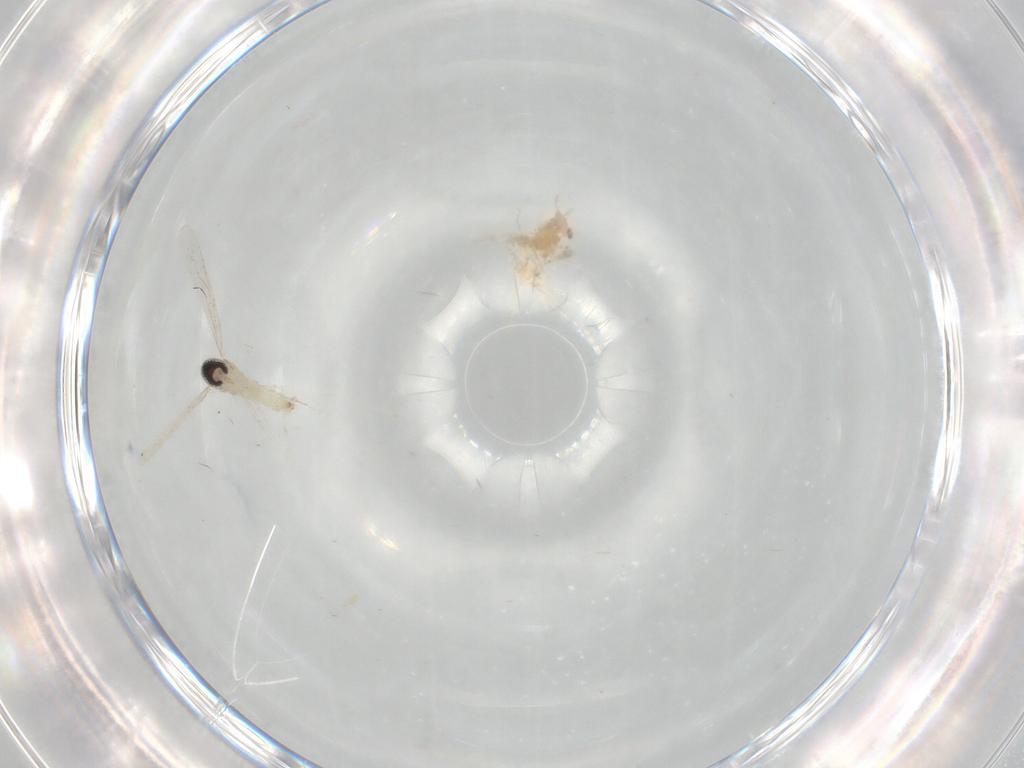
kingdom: Animalia
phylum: Arthropoda
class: Insecta
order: Diptera
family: Cecidomyiidae
